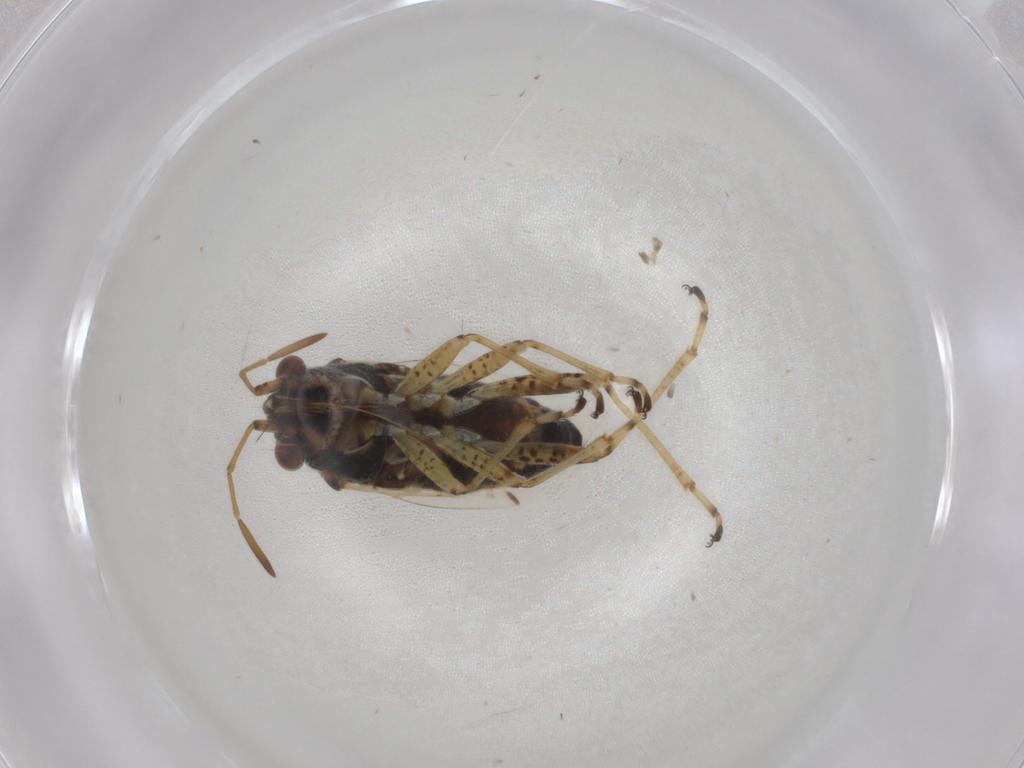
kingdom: Animalia
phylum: Arthropoda
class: Insecta
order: Hemiptera
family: Lygaeidae
